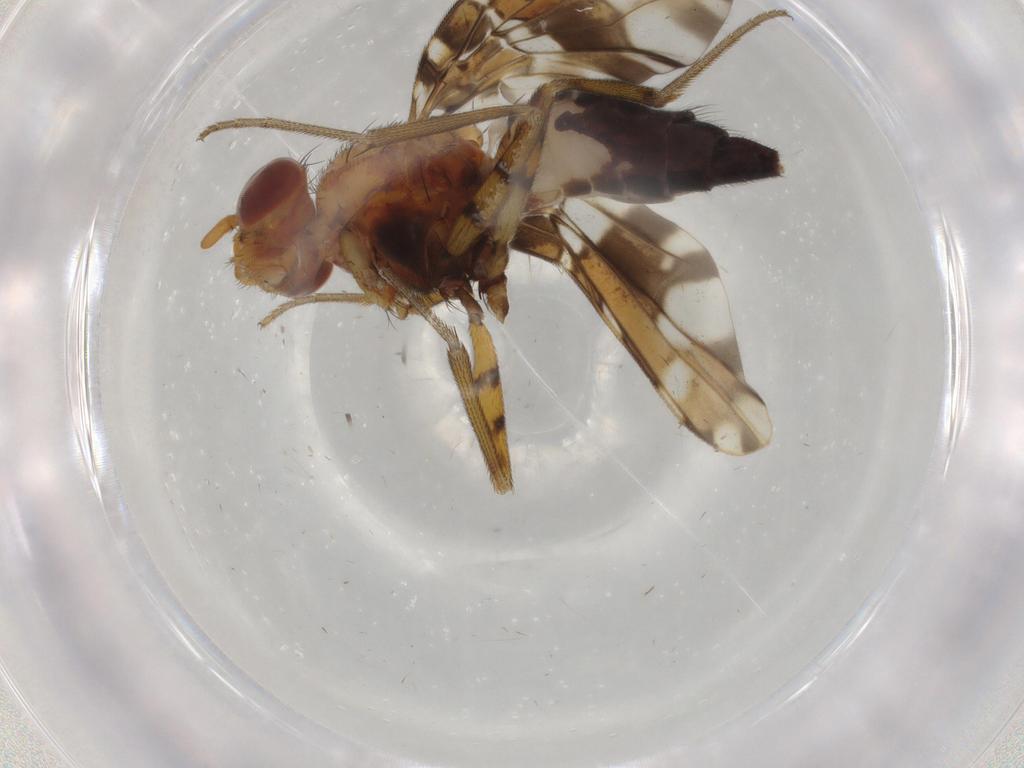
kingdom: Animalia
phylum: Arthropoda
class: Insecta
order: Diptera
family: Ulidiidae
